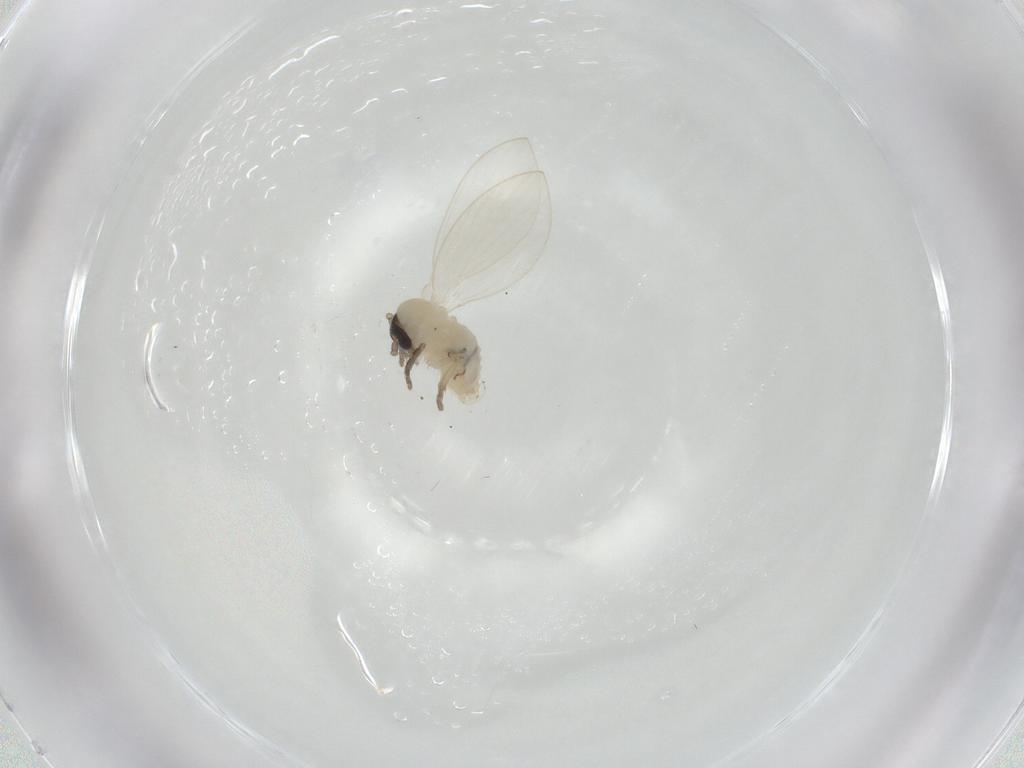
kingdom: Animalia
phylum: Arthropoda
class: Insecta
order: Diptera
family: Psychodidae
